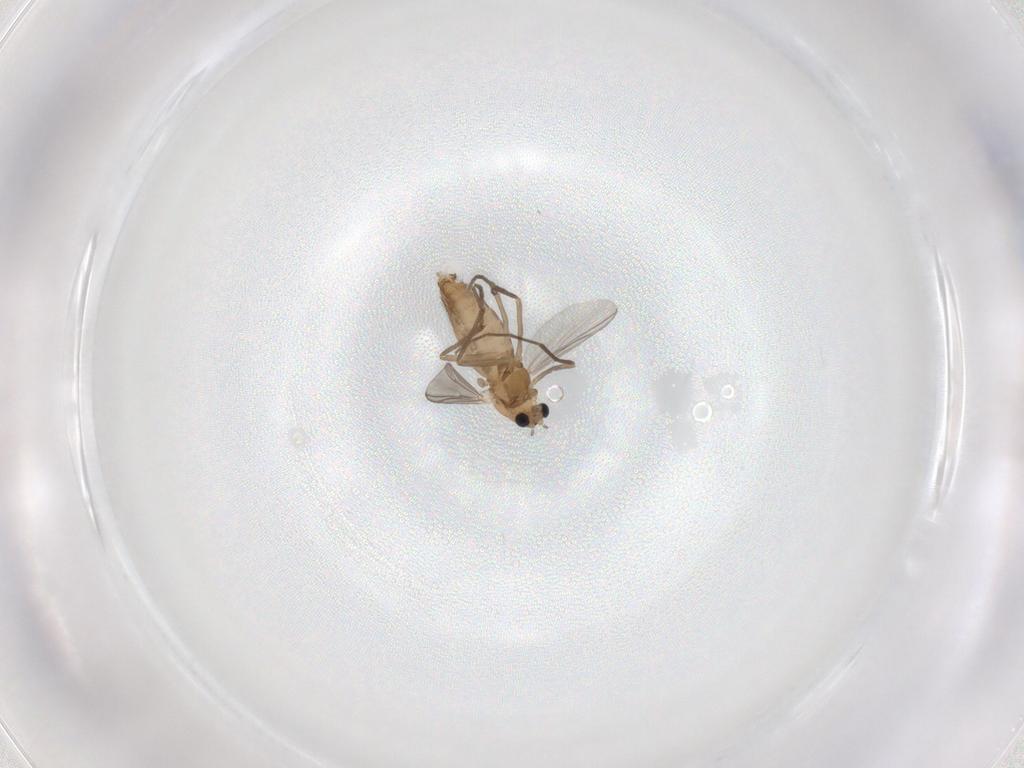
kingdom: Animalia
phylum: Arthropoda
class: Insecta
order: Diptera
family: Chironomidae
